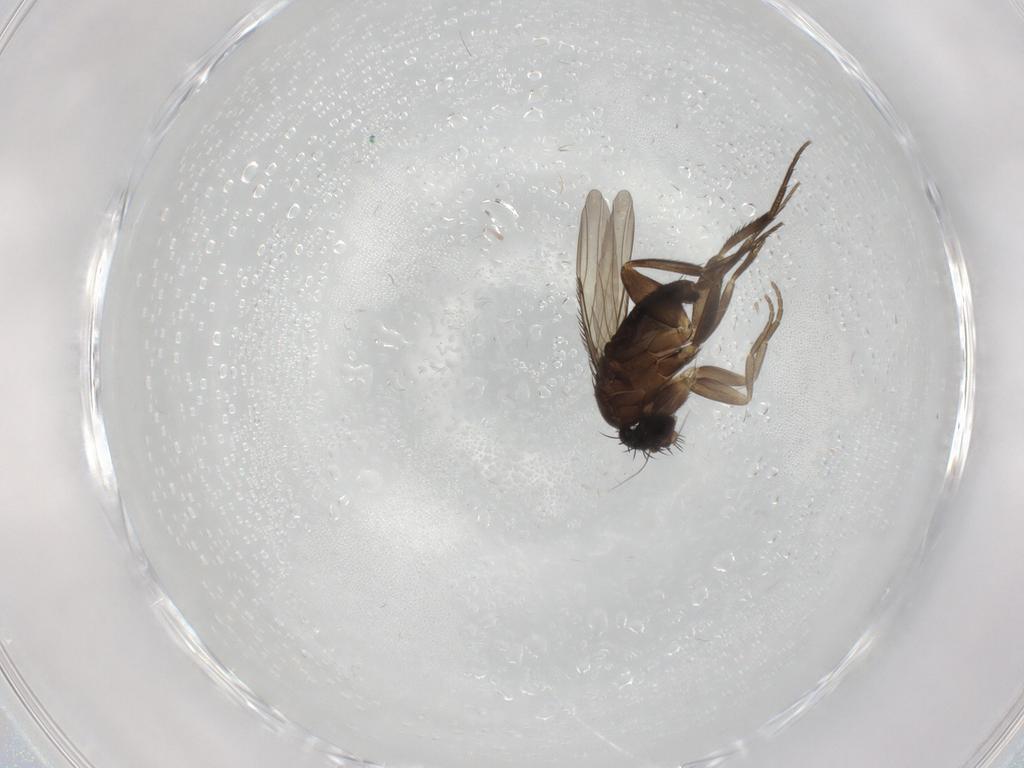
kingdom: Animalia
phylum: Arthropoda
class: Insecta
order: Diptera
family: Phoridae
